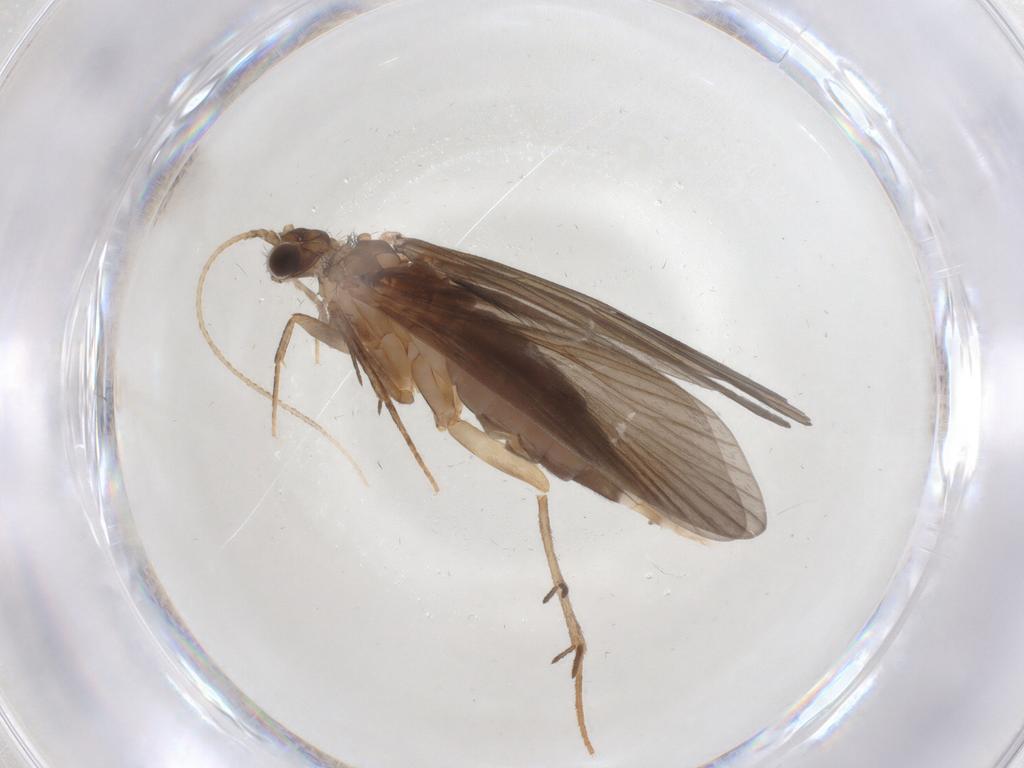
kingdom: Animalia
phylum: Arthropoda
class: Insecta
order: Trichoptera
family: Philopotamidae
